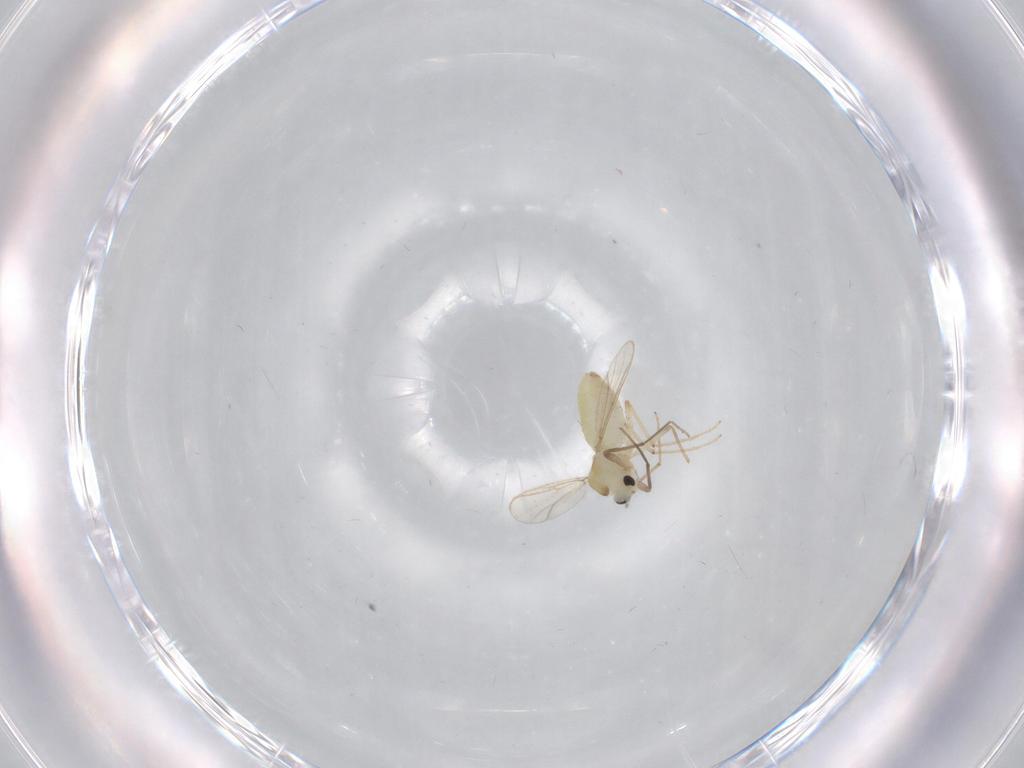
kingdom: Animalia
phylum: Arthropoda
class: Insecta
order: Diptera
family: Chironomidae
